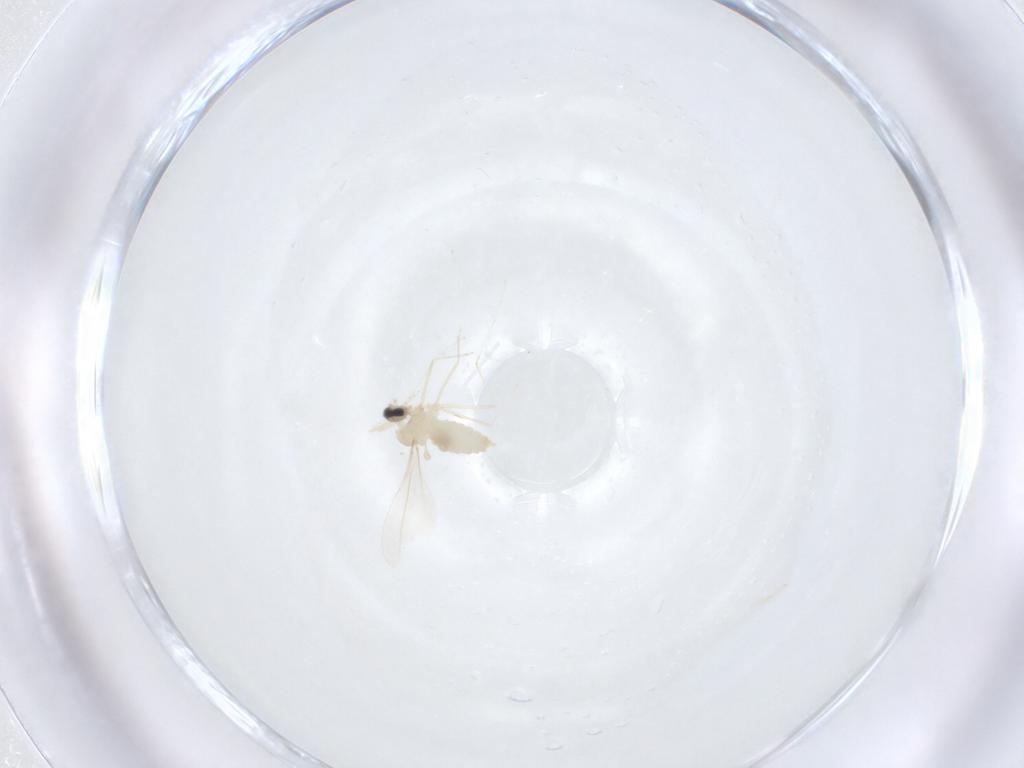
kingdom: Animalia
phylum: Arthropoda
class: Insecta
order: Diptera
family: Cecidomyiidae
